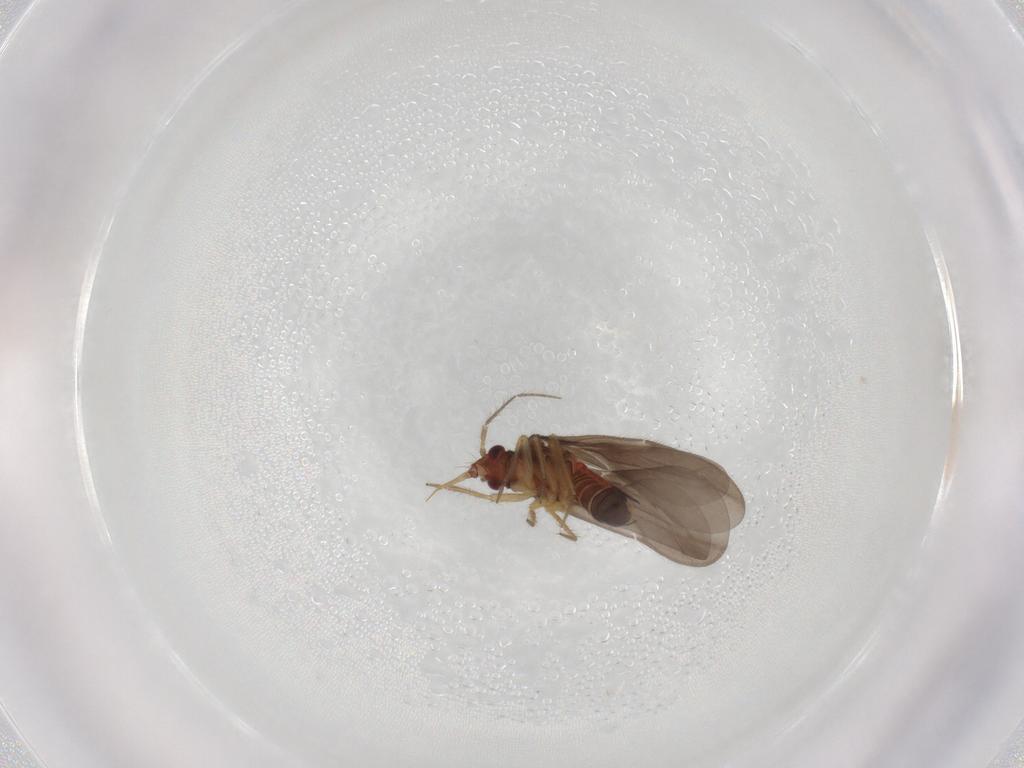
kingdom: Animalia
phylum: Arthropoda
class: Insecta
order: Hemiptera
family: Ceratocombidae
